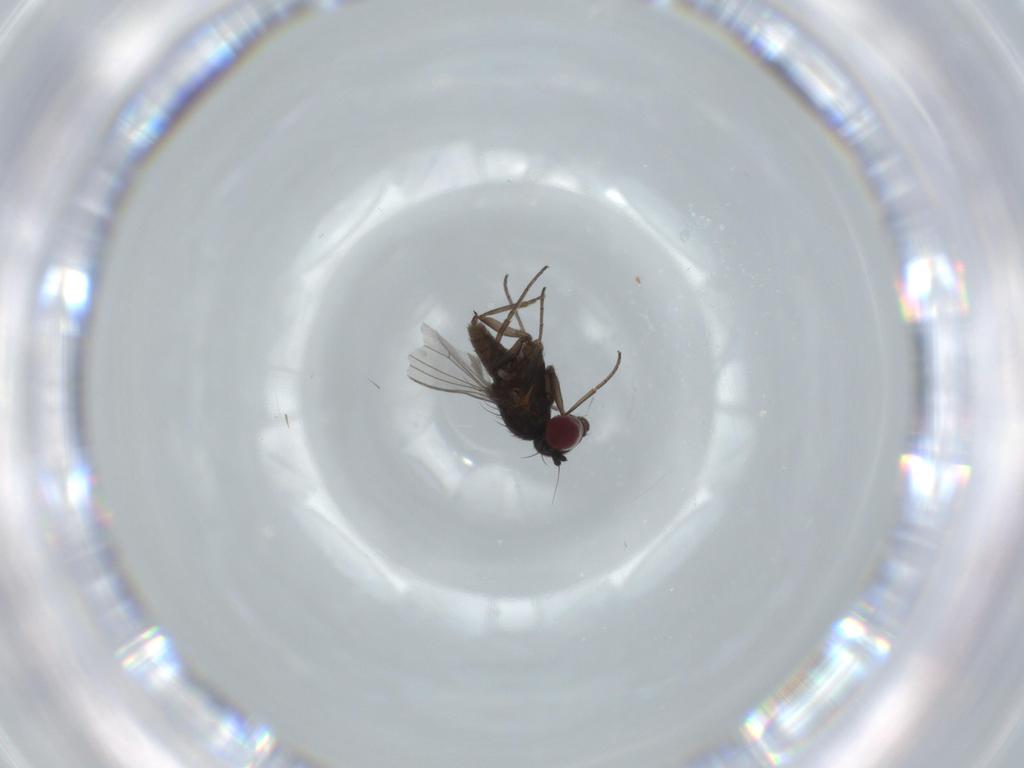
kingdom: Animalia
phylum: Arthropoda
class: Insecta
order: Diptera
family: Dolichopodidae
